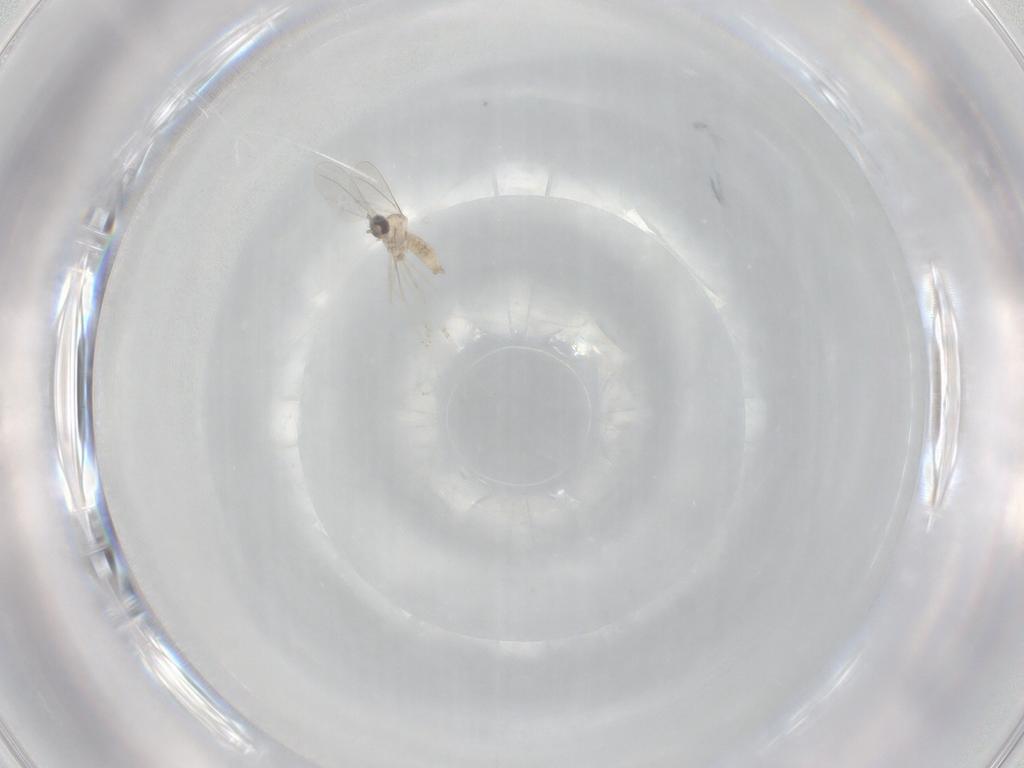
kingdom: Animalia
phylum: Arthropoda
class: Insecta
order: Diptera
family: Cecidomyiidae
